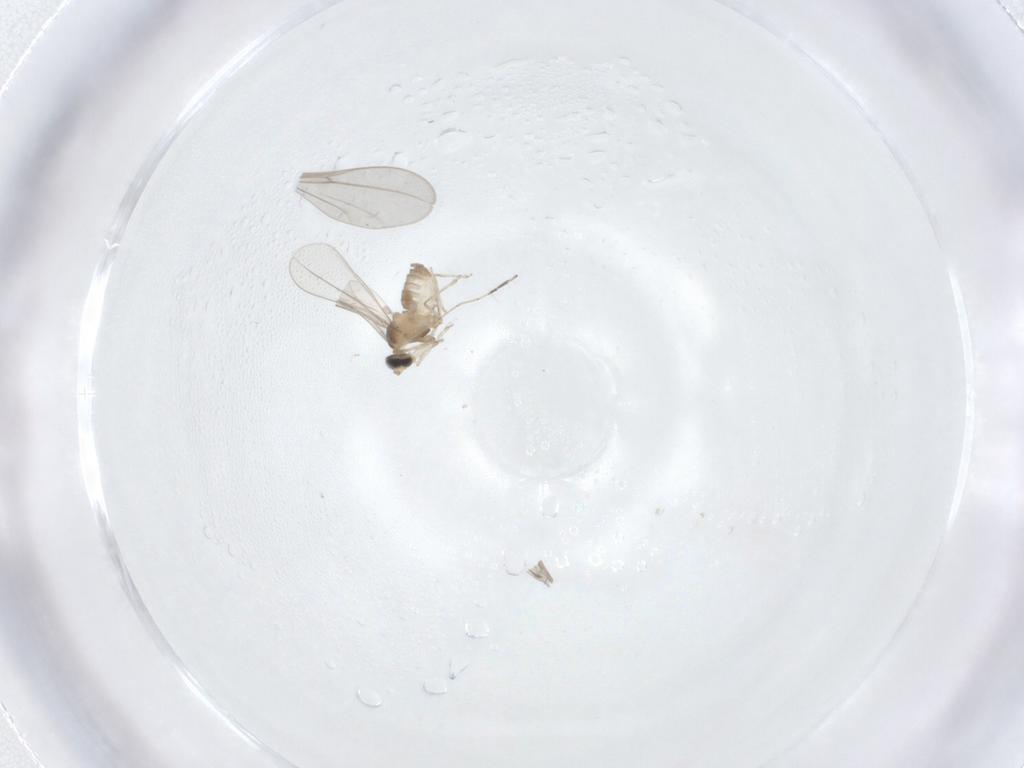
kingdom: Animalia
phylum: Arthropoda
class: Insecta
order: Diptera
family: Cecidomyiidae
